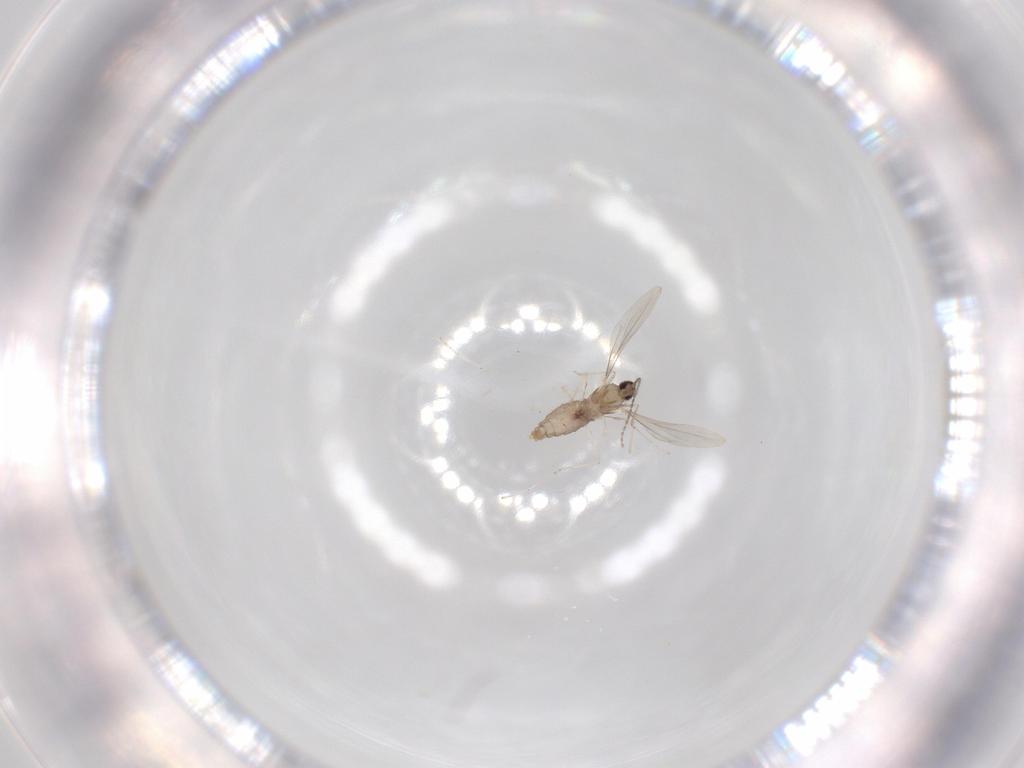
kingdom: Animalia
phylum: Arthropoda
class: Insecta
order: Diptera
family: Cecidomyiidae
